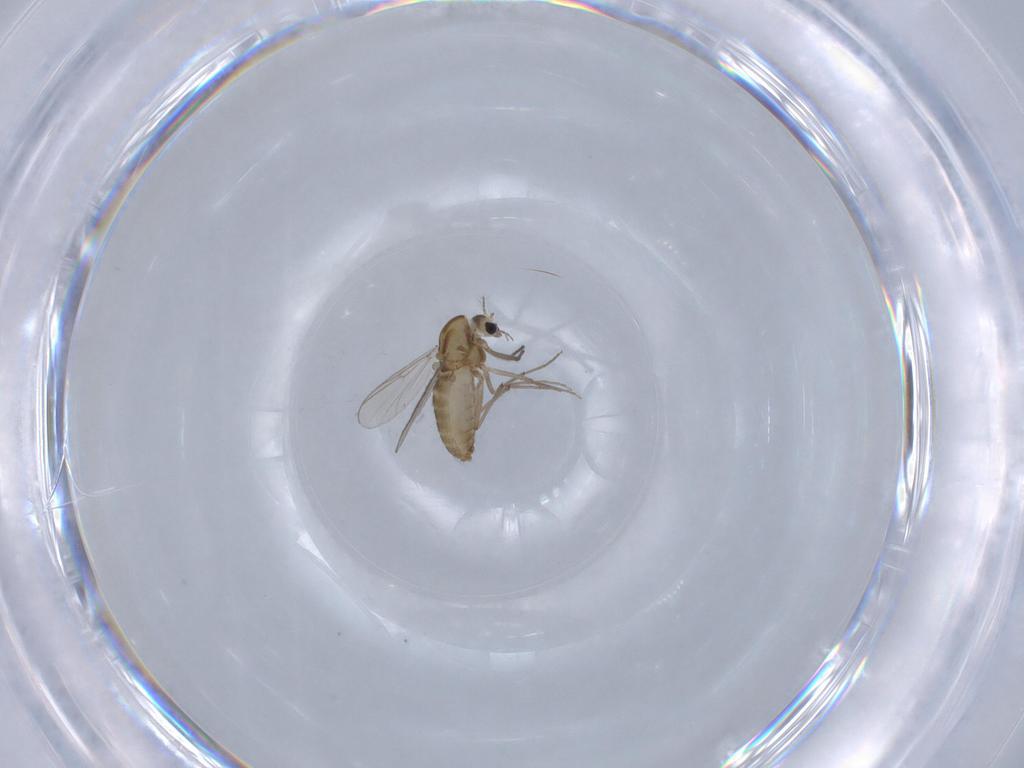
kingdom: Animalia
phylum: Arthropoda
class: Insecta
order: Diptera
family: Chironomidae
